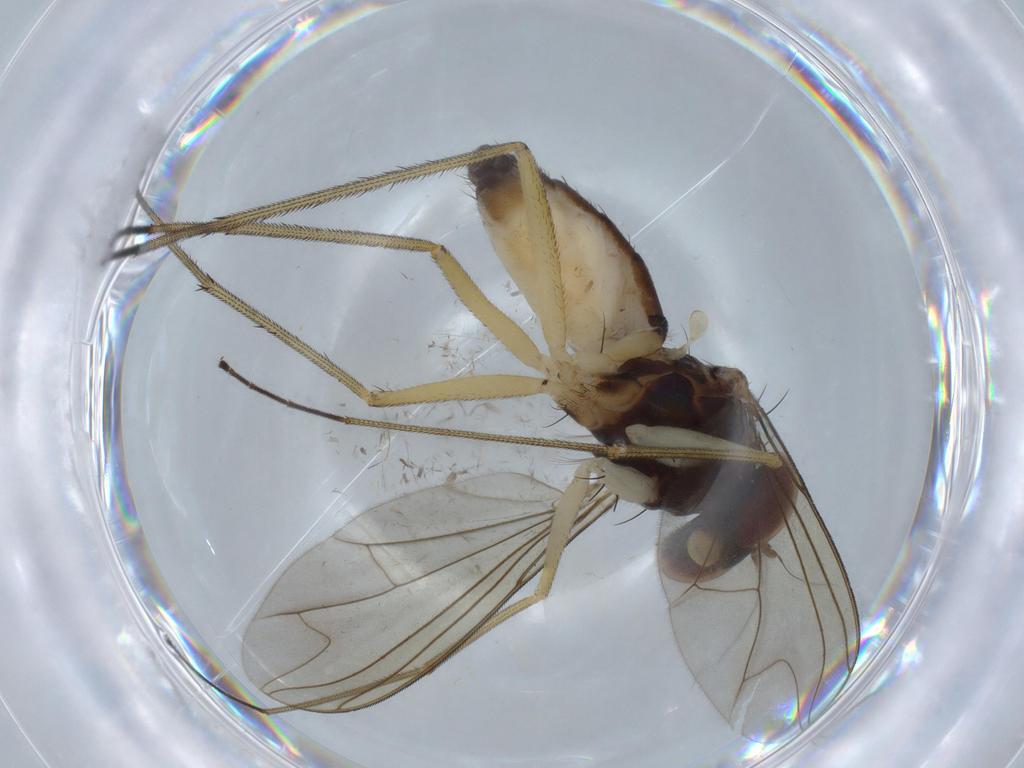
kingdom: Animalia
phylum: Arthropoda
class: Insecta
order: Diptera
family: Dolichopodidae
